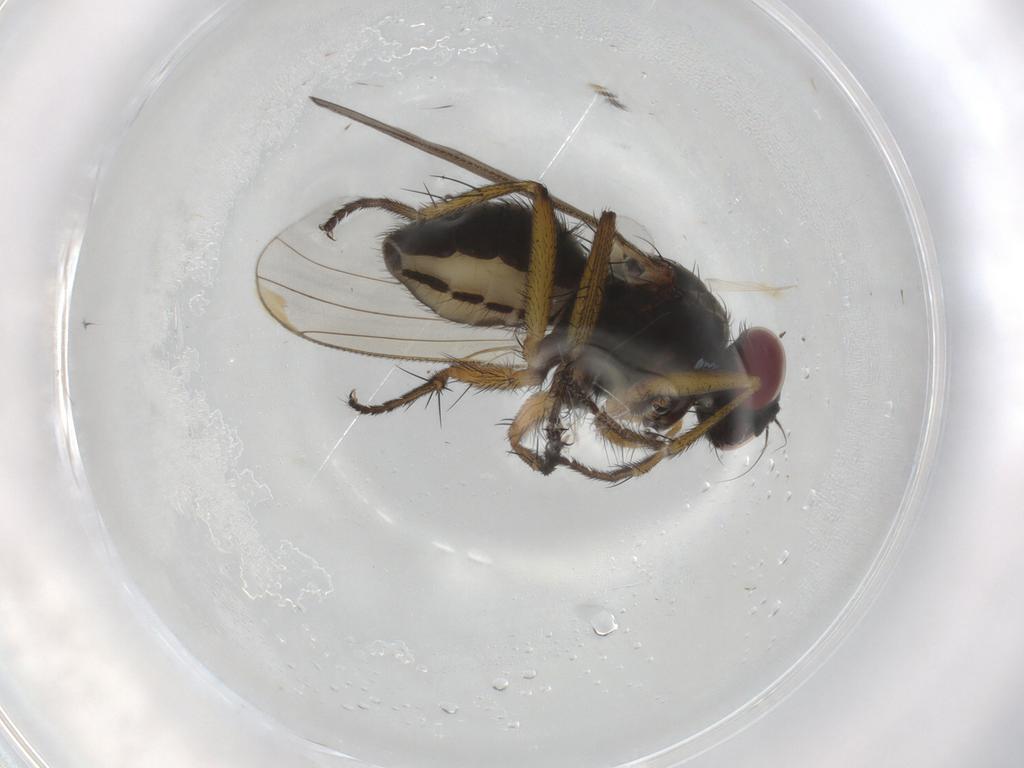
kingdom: Animalia
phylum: Arthropoda
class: Insecta
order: Diptera
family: Muscidae
